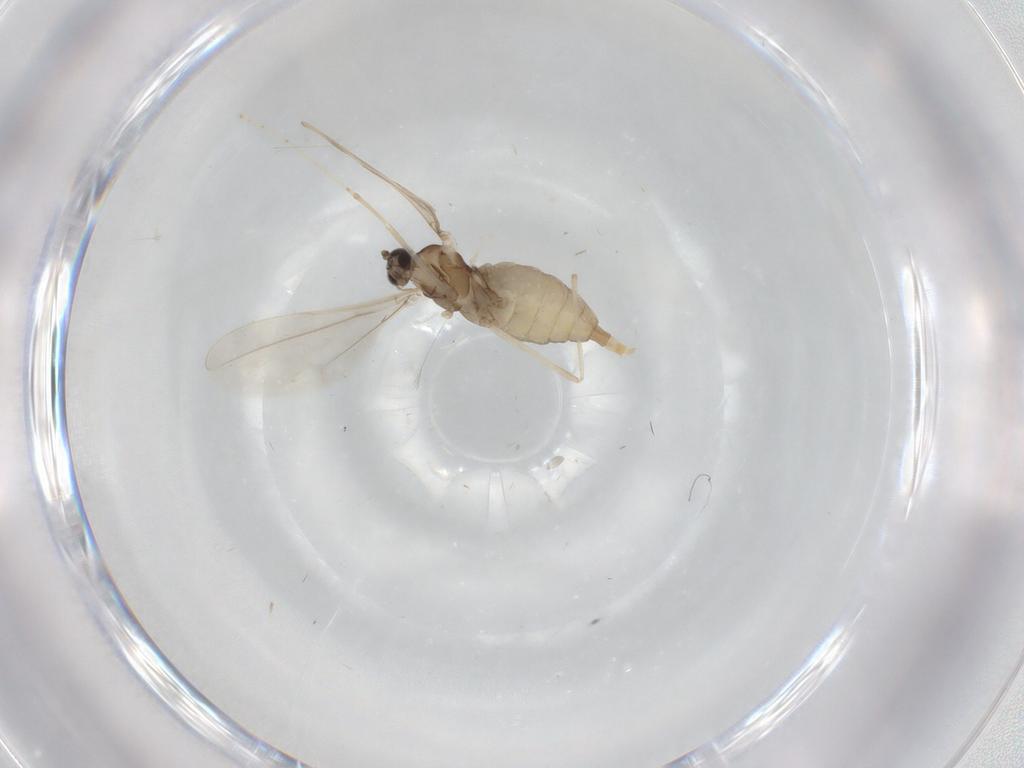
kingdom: Animalia
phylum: Arthropoda
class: Insecta
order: Diptera
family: Cecidomyiidae
